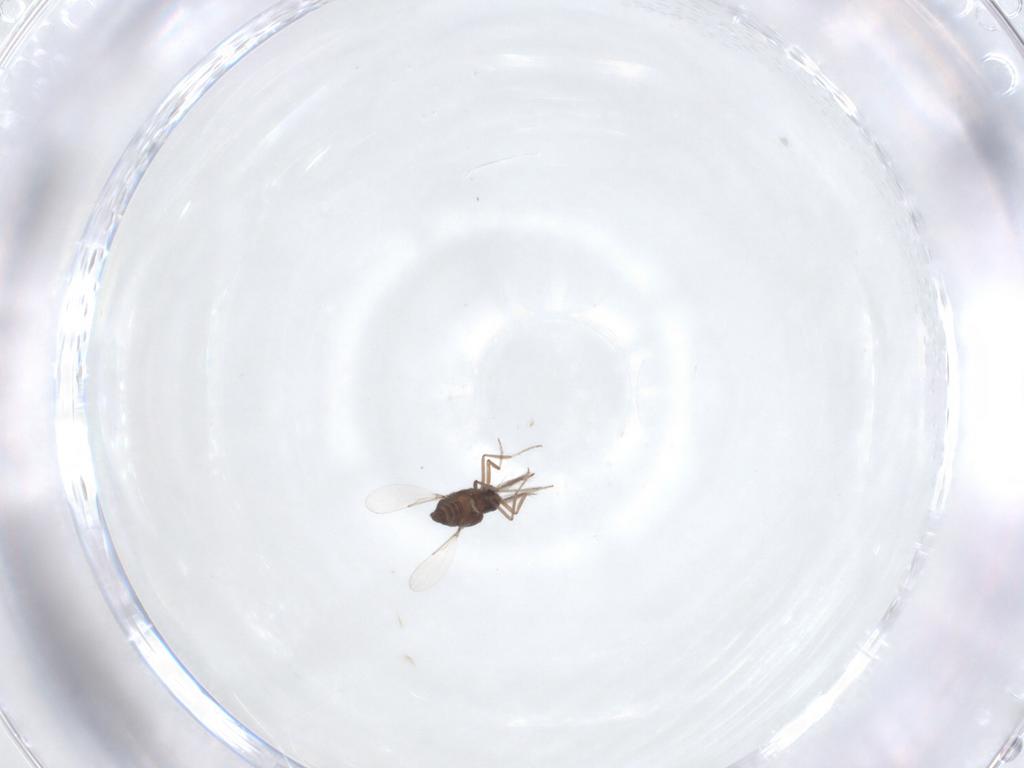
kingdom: Animalia
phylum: Arthropoda
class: Insecta
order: Diptera
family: Ceratopogonidae
